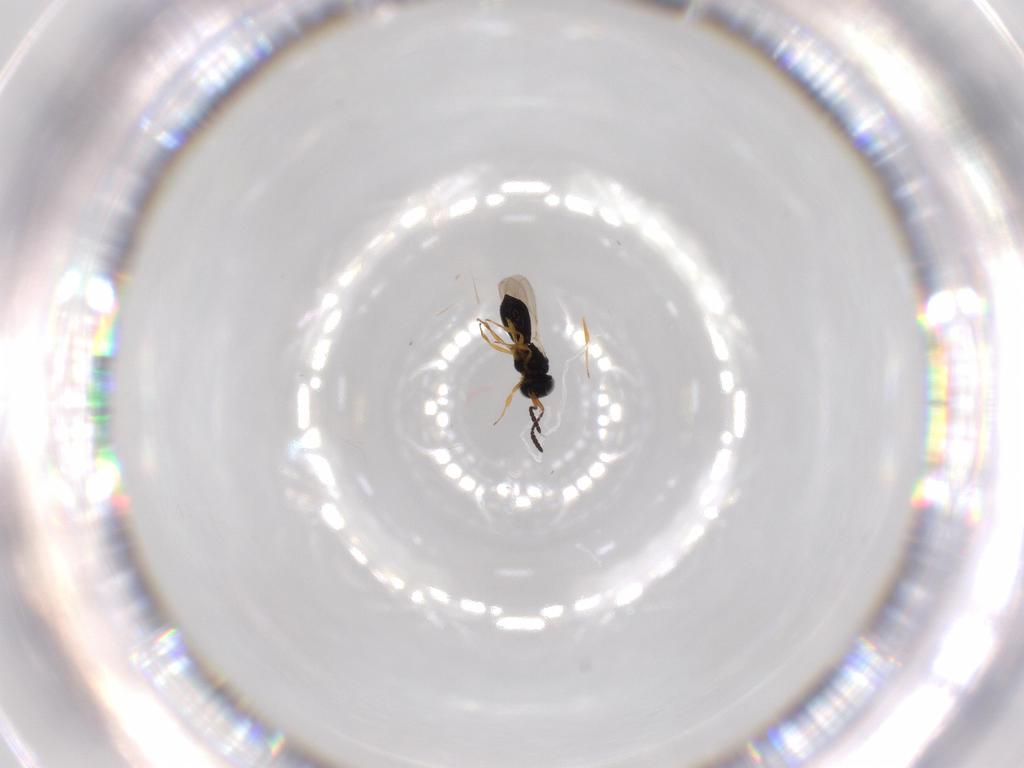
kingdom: Animalia
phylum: Arthropoda
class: Insecta
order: Hymenoptera
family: Scelionidae
